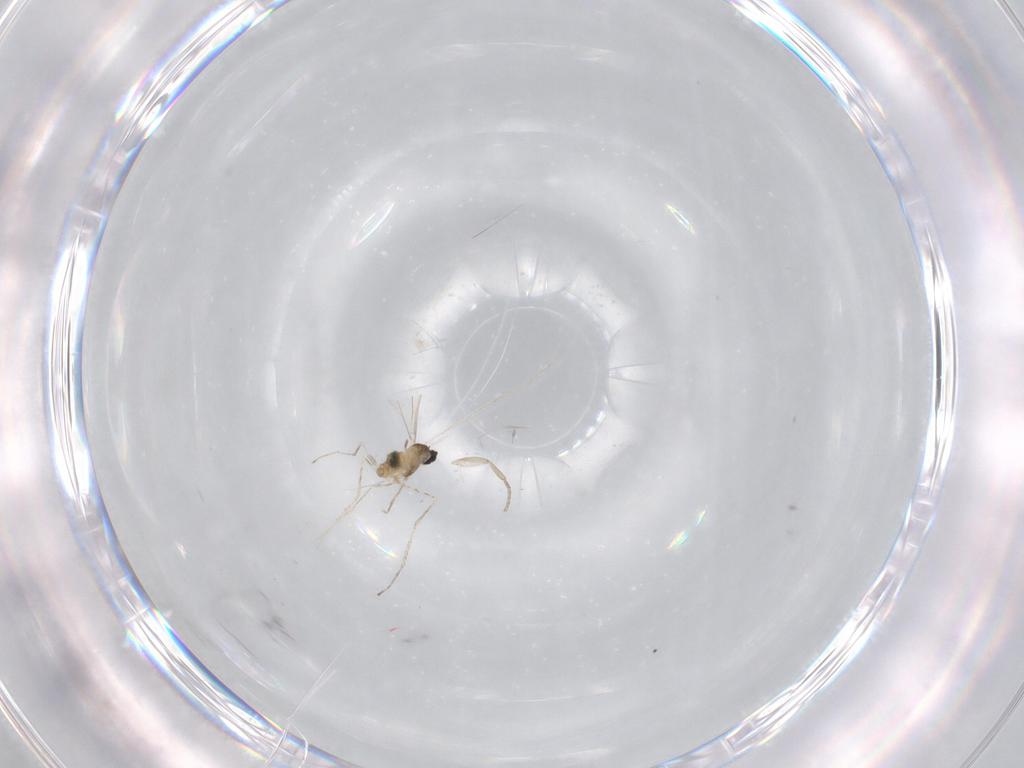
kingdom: Animalia
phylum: Arthropoda
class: Insecta
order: Diptera
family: Cecidomyiidae
